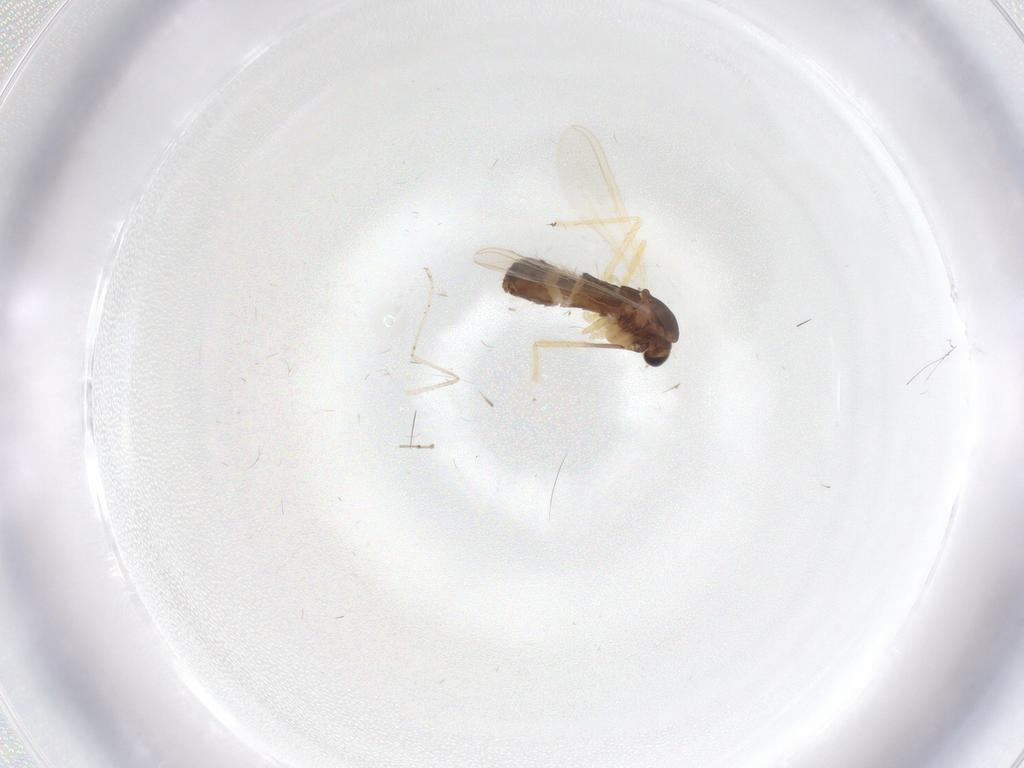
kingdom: Animalia
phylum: Arthropoda
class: Insecta
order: Diptera
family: Chironomidae
